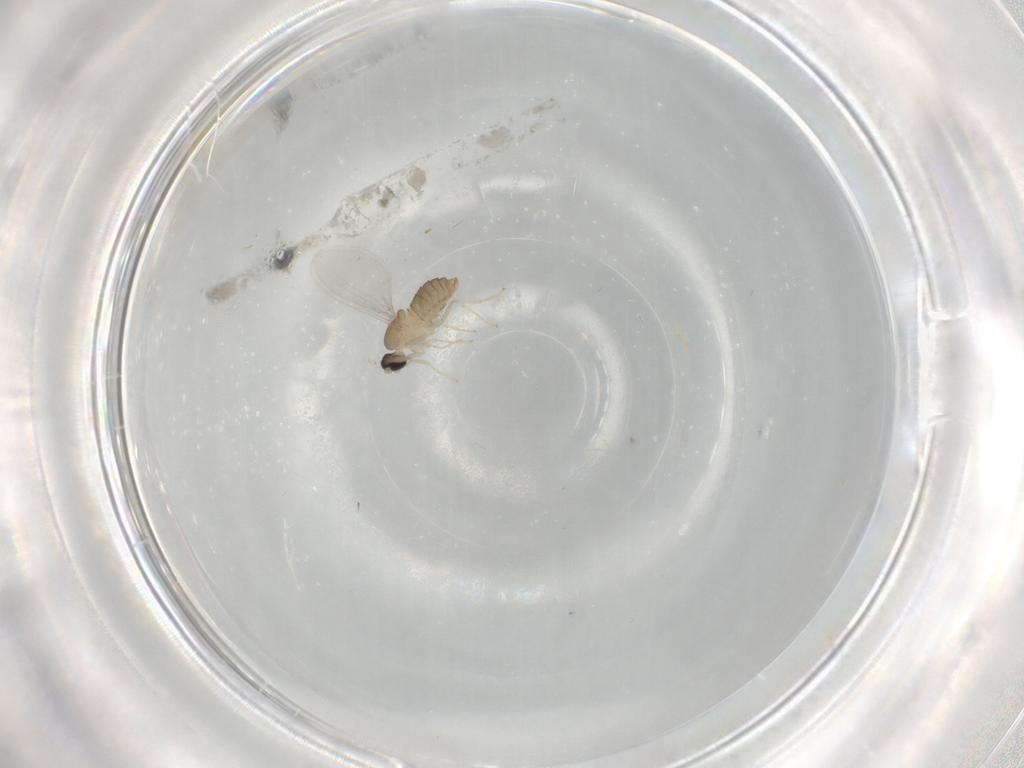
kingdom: Animalia
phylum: Arthropoda
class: Insecta
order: Diptera
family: Cecidomyiidae
